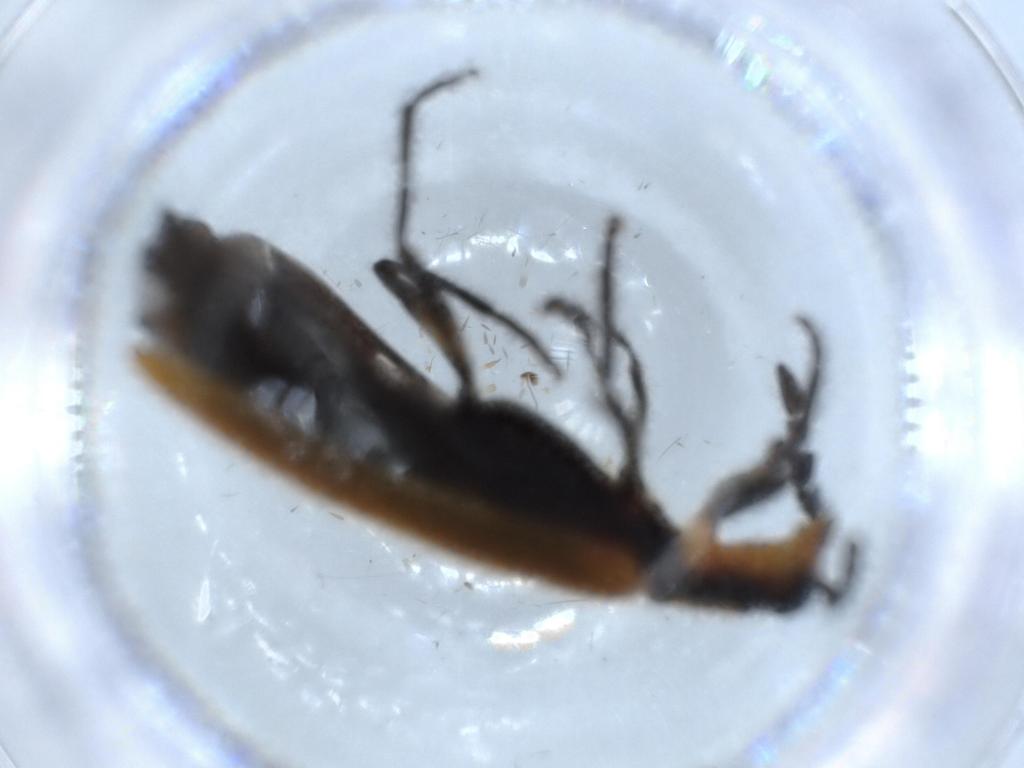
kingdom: Animalia
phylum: Arthropoda
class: Insecta
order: Coleoptera
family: Cleridae
